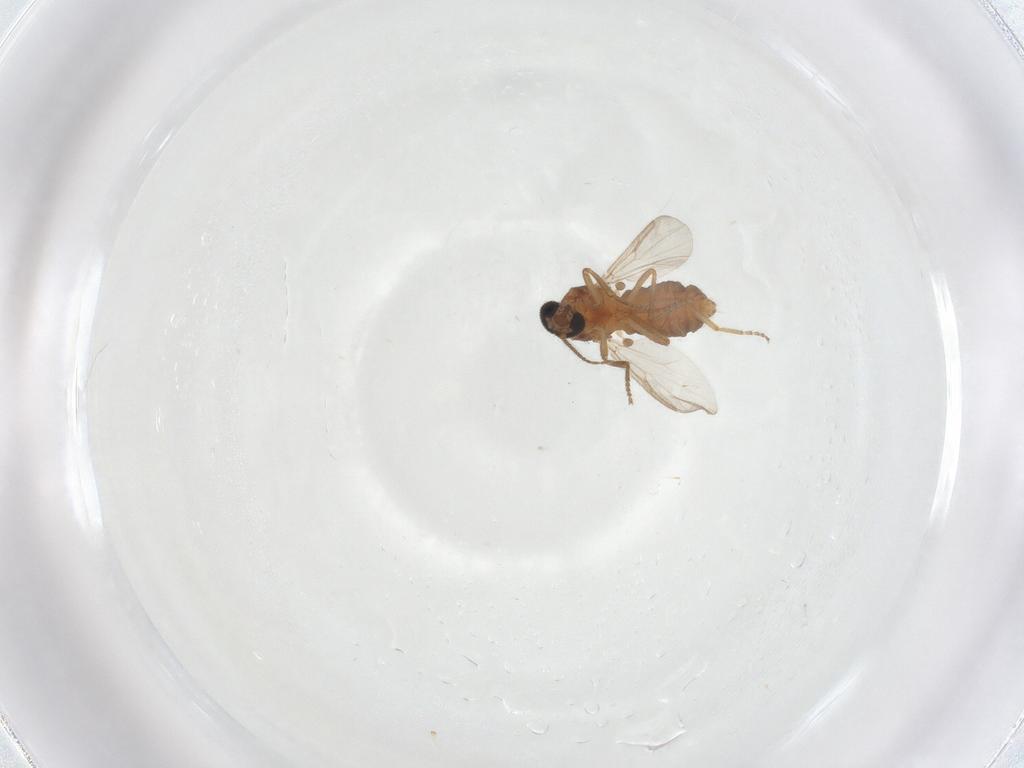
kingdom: Animalia
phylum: Arthropoda
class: Insecta
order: Diptera
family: Ceratopogonidae
